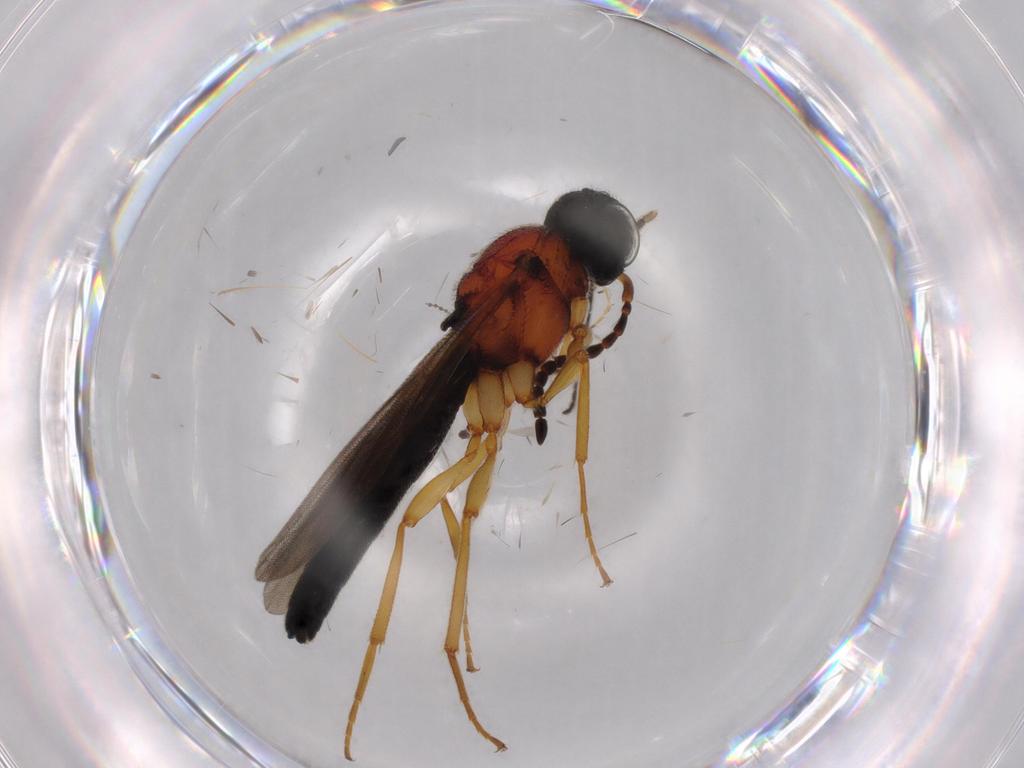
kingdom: Animalia
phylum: Arthropoda
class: Insecta
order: Hymenoptera
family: Scelionidae
